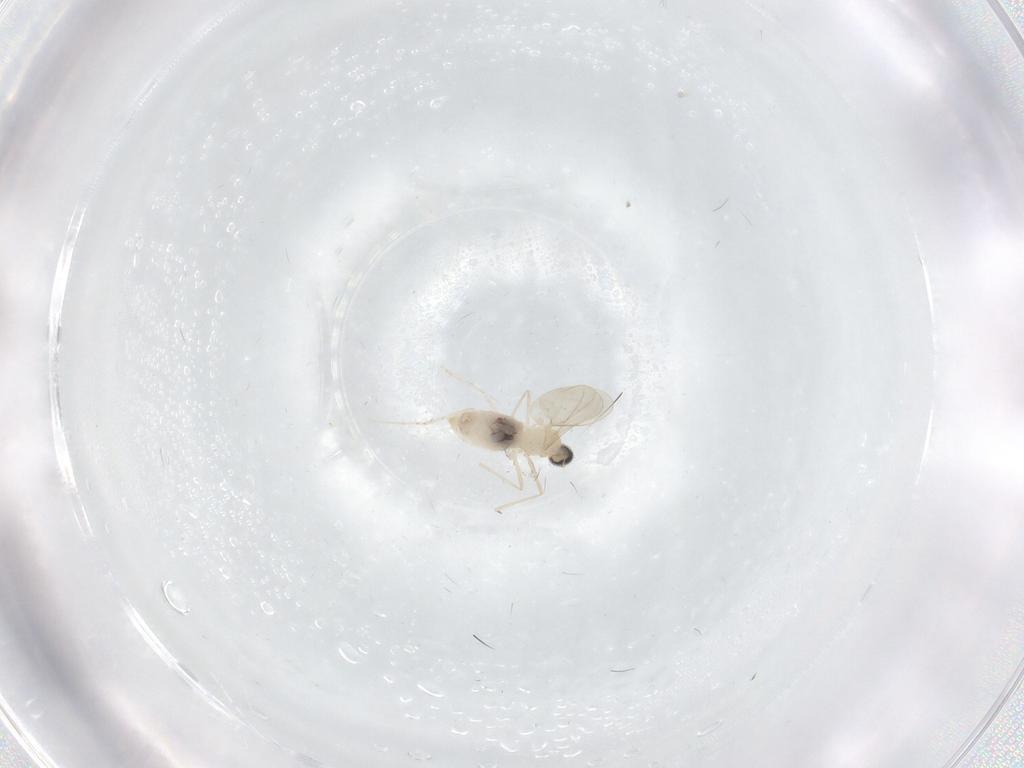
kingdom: Animalia
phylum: Arthropoda
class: Insecta
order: Diptera
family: Ceratopogonidae
